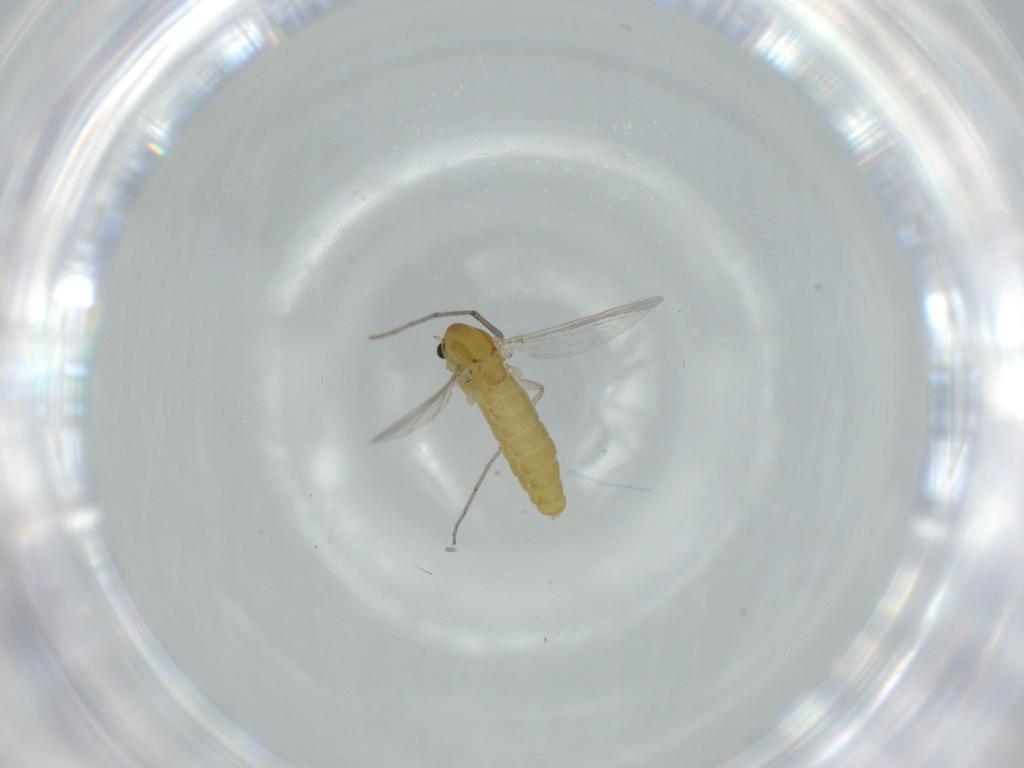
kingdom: Animalia
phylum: Arthropoda
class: Insecta
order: Diptera
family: Chironomidae
